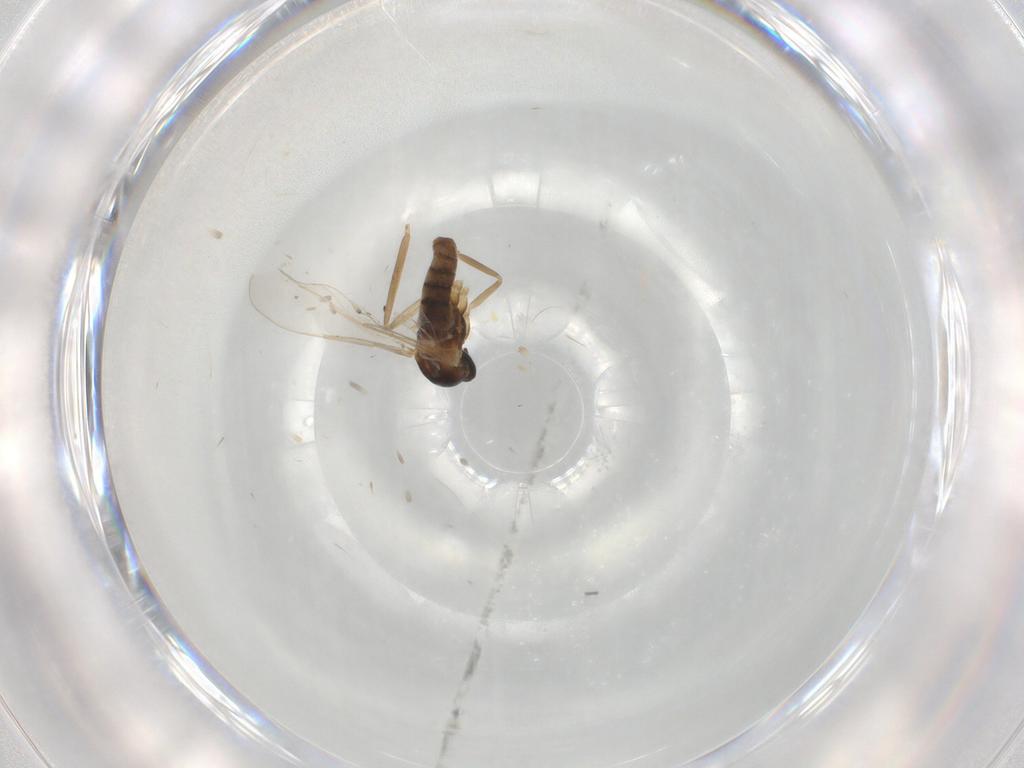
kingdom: Animalia
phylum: Arthropoda
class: Insecta
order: Diptera
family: Cecidomyiidae
